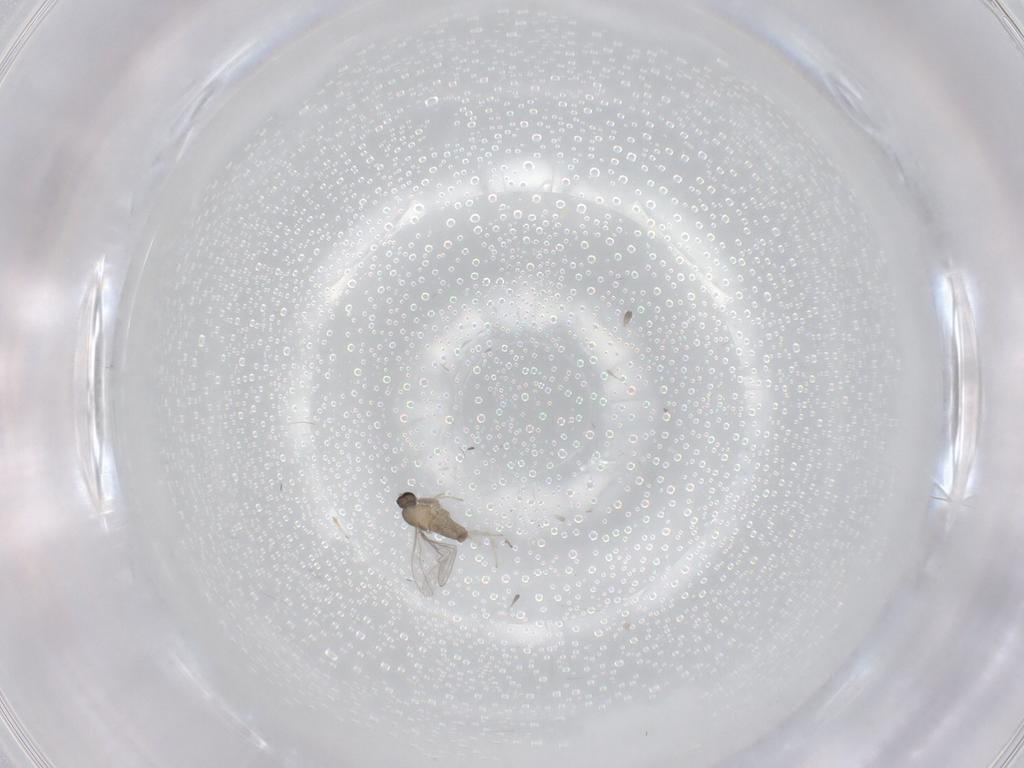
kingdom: Animalia
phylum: Arthropoda
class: Insecta
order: Diptera
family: Cecidomyiidae
